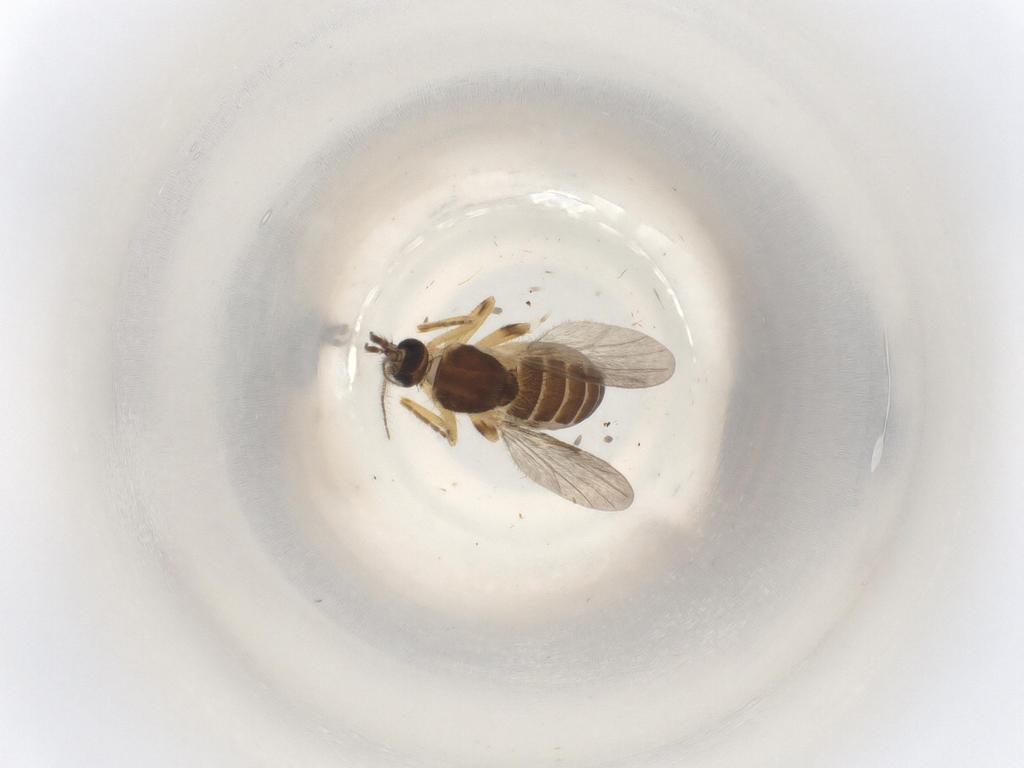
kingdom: Animalia
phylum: Arthropoda
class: Insecta
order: Diptera
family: Ceratopogonidae
